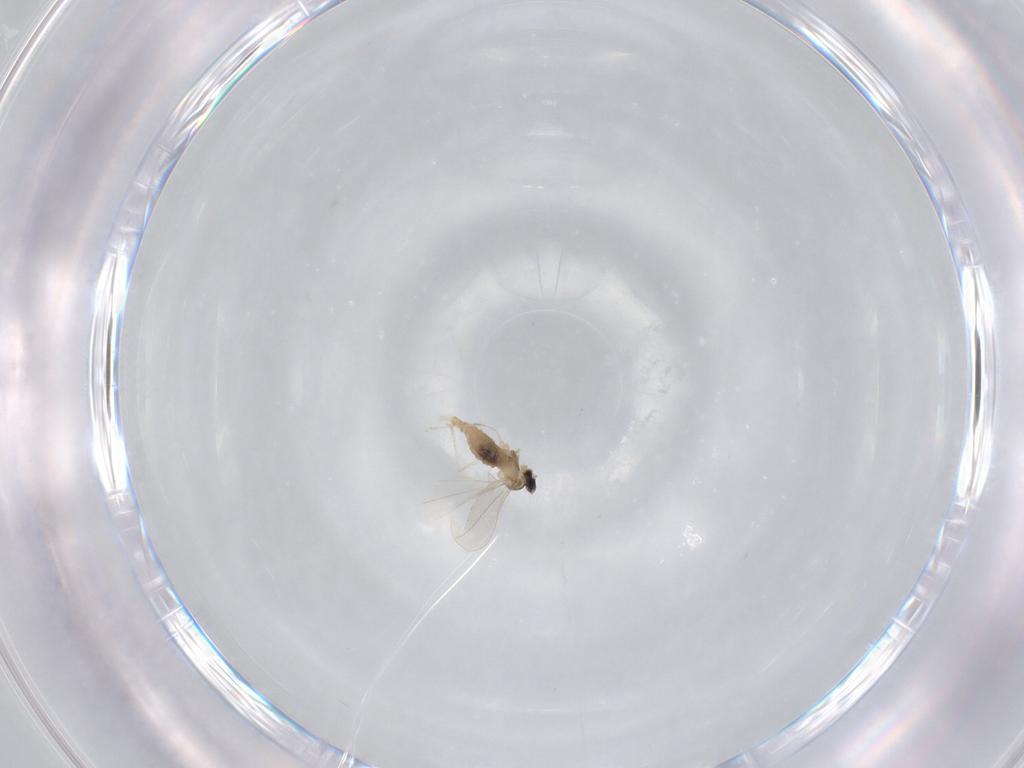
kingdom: Animalia
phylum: Arthropoda
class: Insecta
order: Diptera
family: Cecidomyiidae
